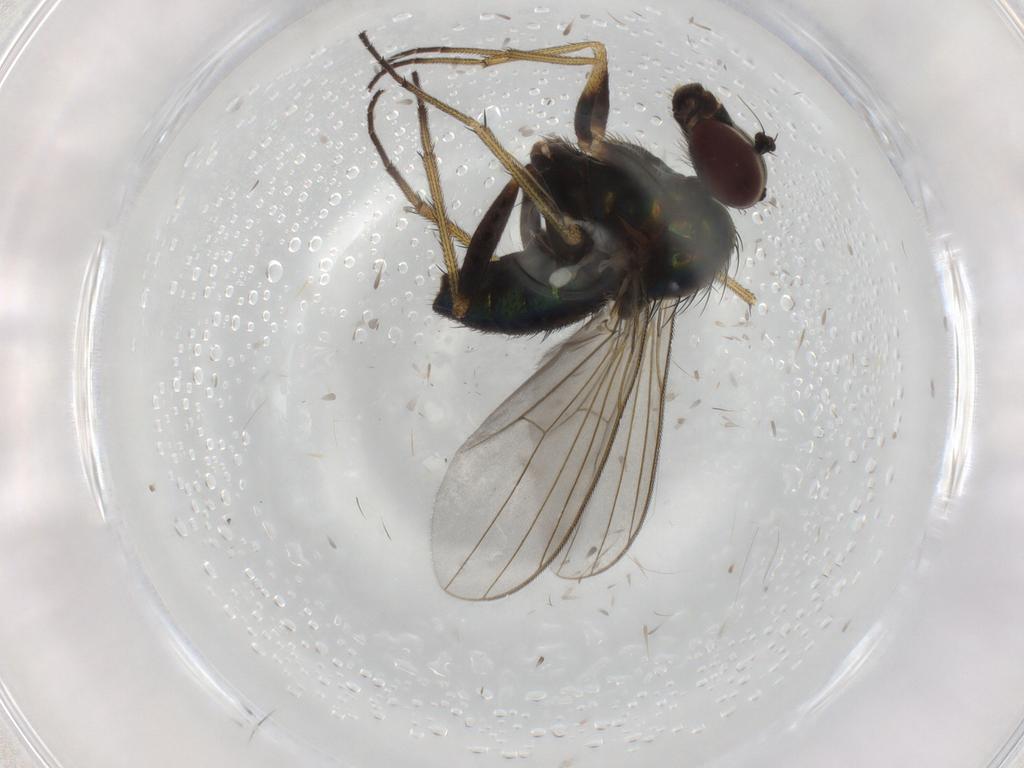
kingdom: Animalia
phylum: Arthropoda
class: Insecta
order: Diptera
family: Dolichopodidae
